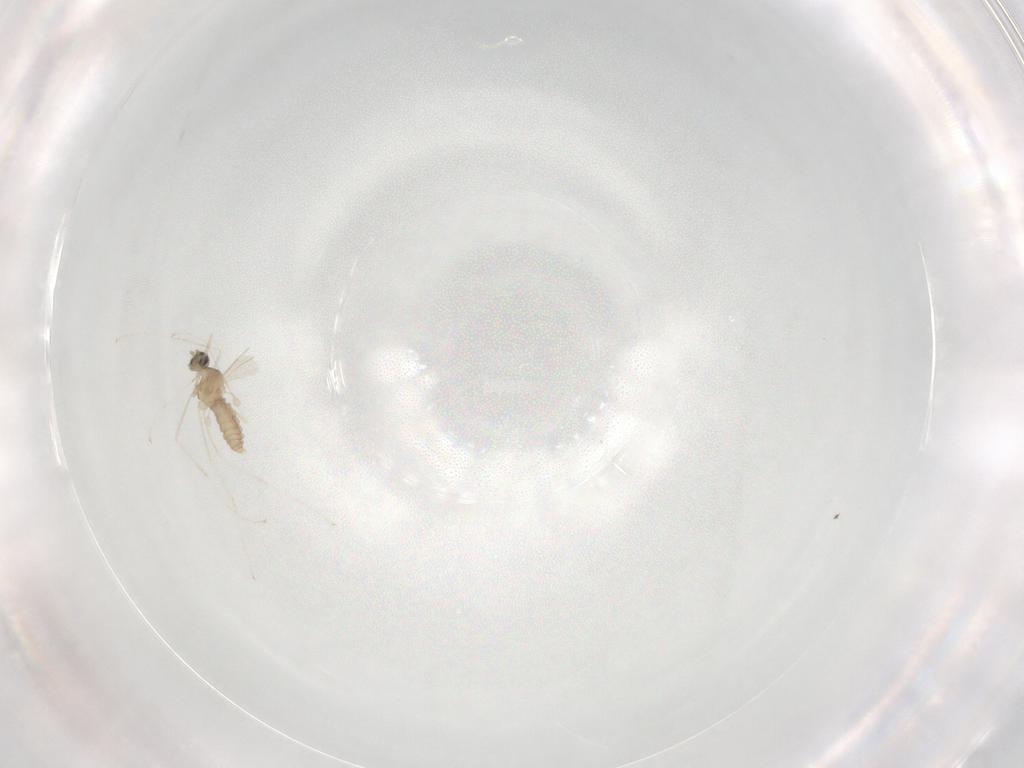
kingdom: Animalia
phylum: Arthropoda
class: Insecta
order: Diptera
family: Cecidomyiidae
